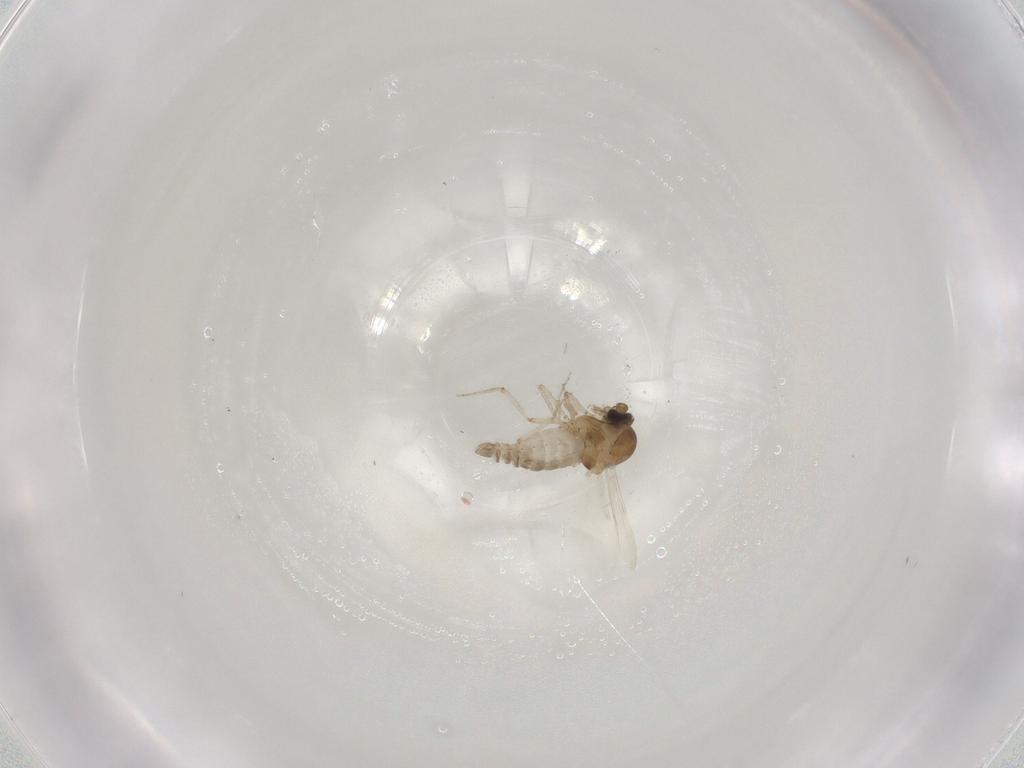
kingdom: Animalia
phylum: Arthropoda
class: Insecta
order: Diptera
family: Ceratopogonidae
